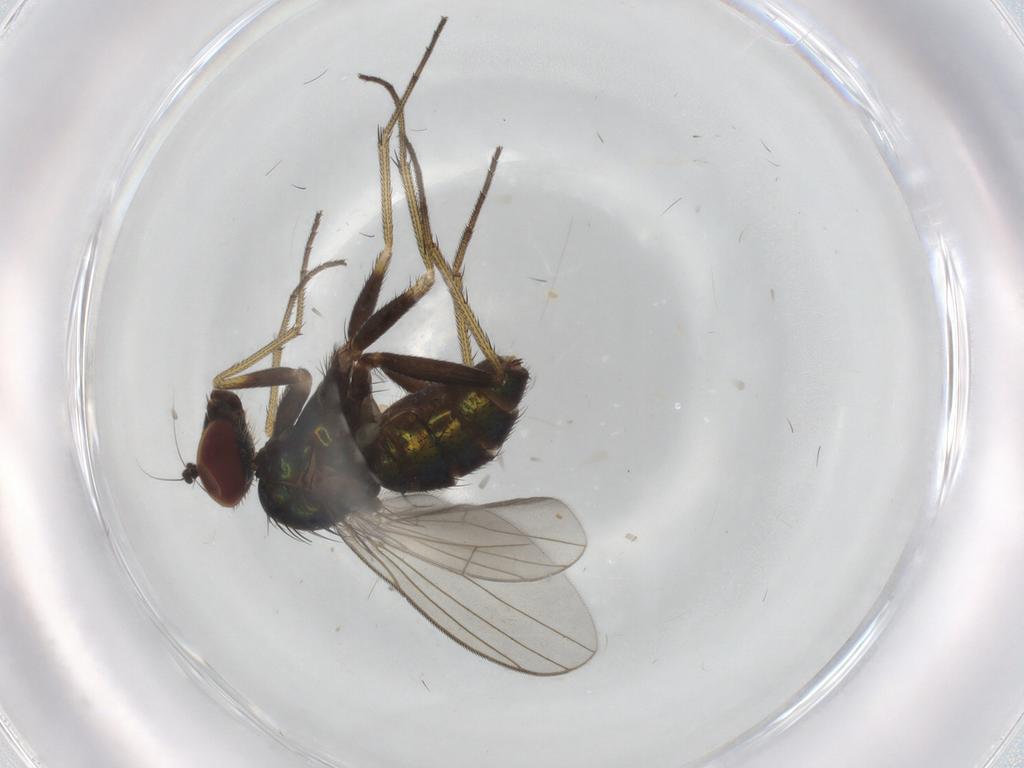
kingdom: Animalia
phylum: Arthropoda
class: Insecta
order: Diptera
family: Dolichopodidae
